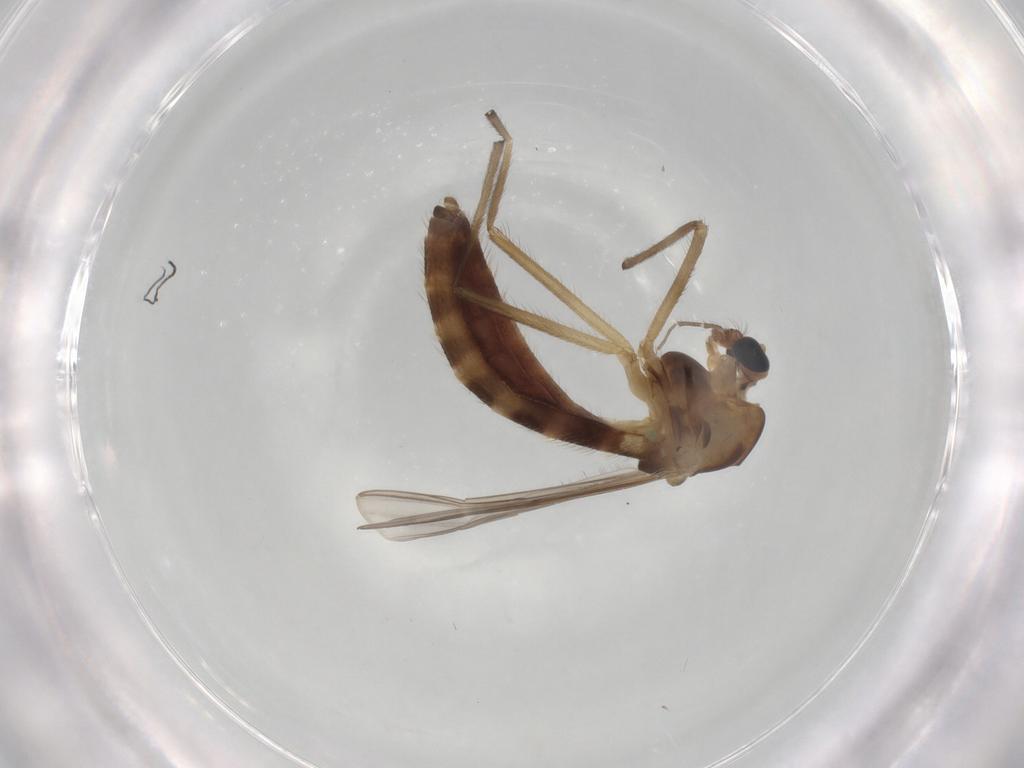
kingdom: Animalia
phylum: Arthropoda
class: Insecta
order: Diptera
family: Chironomidae
